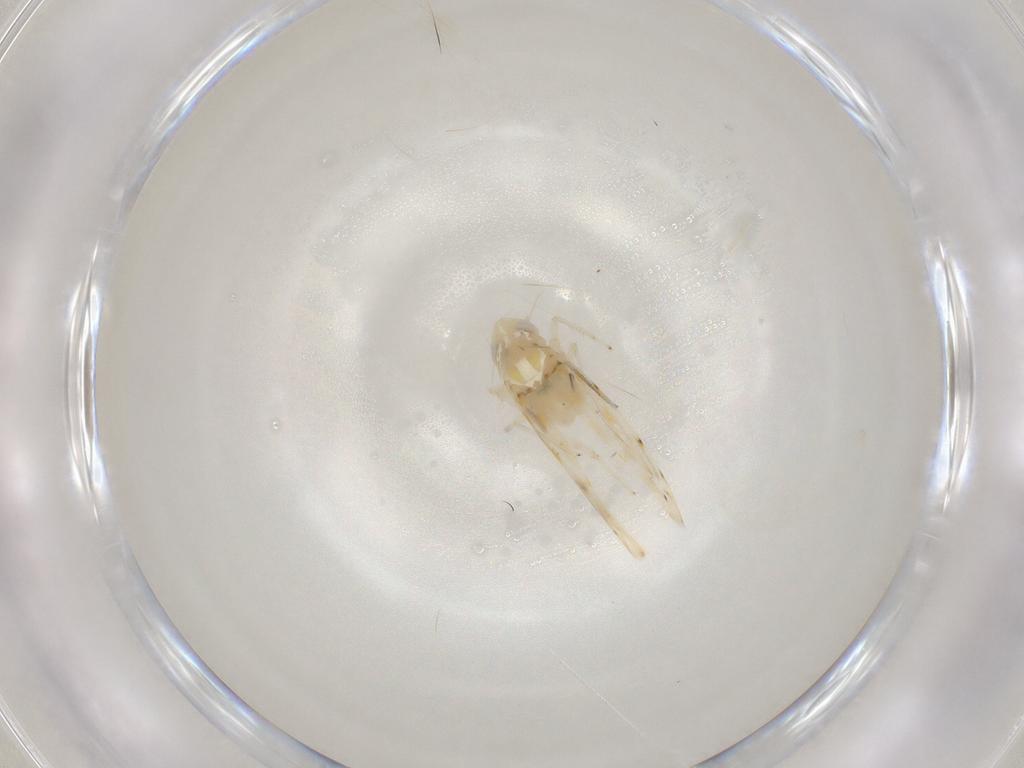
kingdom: Animalia
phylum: Arthropoda
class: Insecta
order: Hemiptera
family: Cicadellidae
